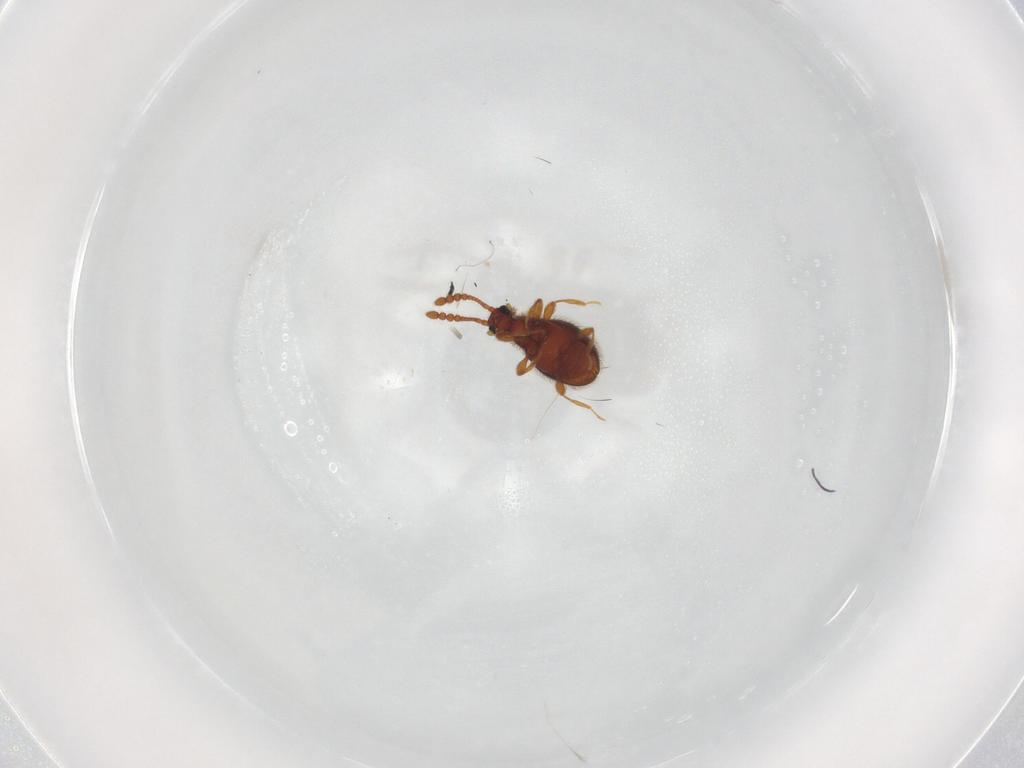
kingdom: Animalia
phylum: Arthropoda
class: Insecta
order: Coleoptera
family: Staphylinidae
